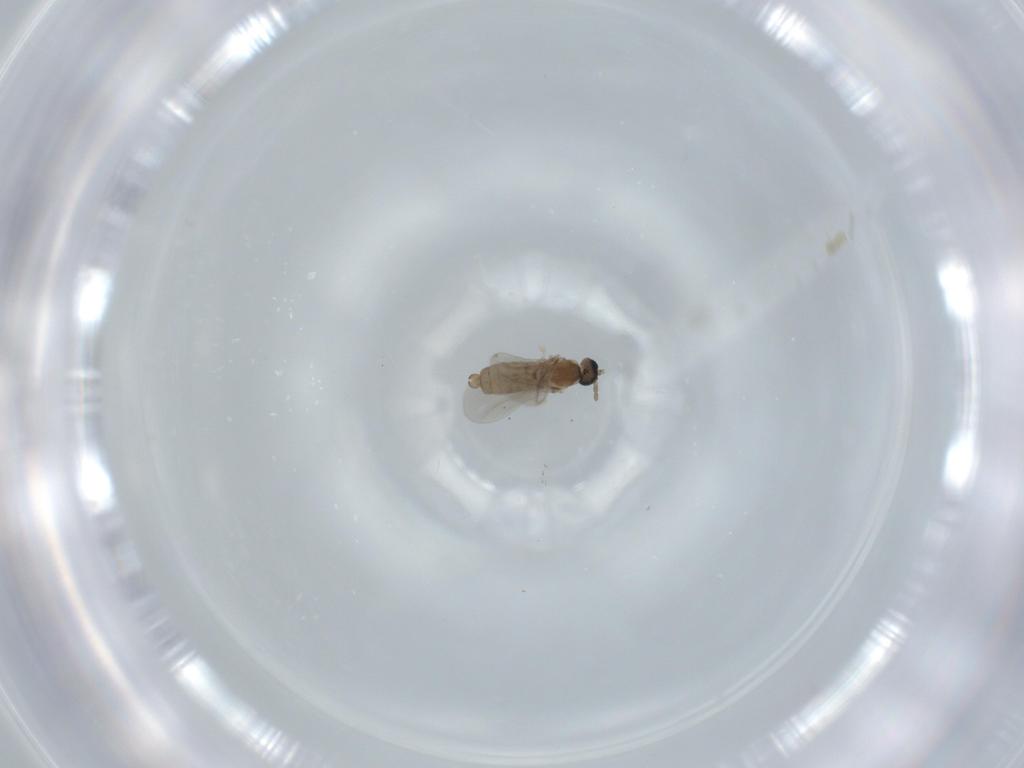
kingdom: Animalia
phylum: Arthropoda
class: Insecta
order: Diptera
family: Cecidomyiidae
